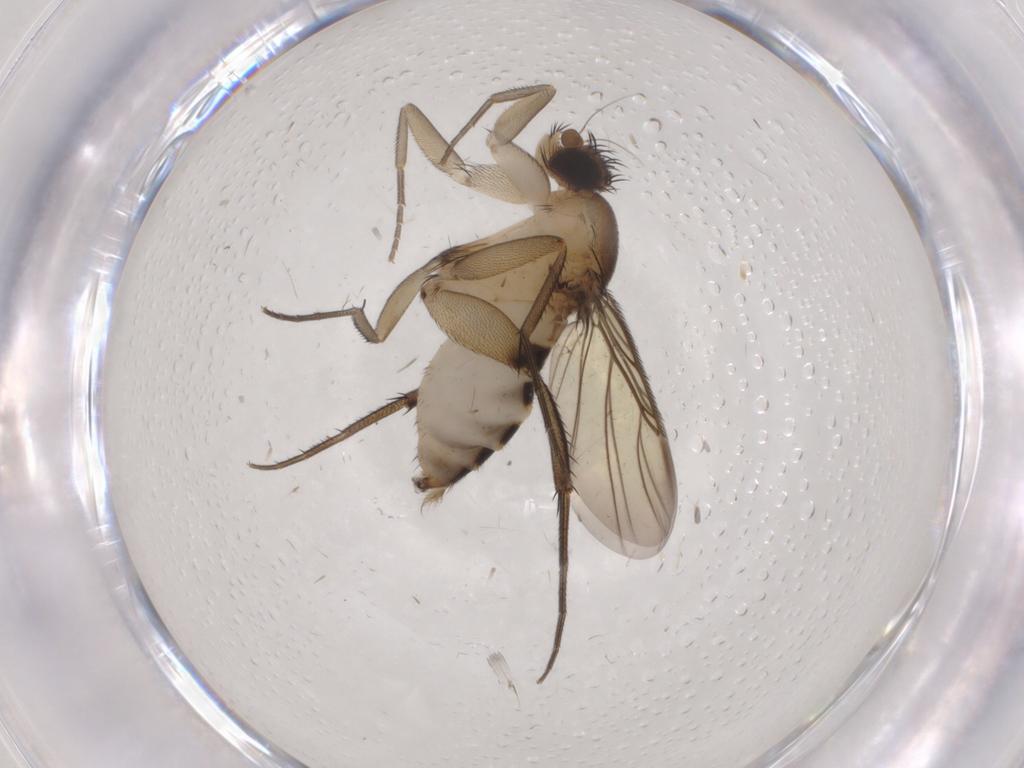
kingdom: Animalia
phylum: Arthropoda
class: Insecta
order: Diptera
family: Phoridae
